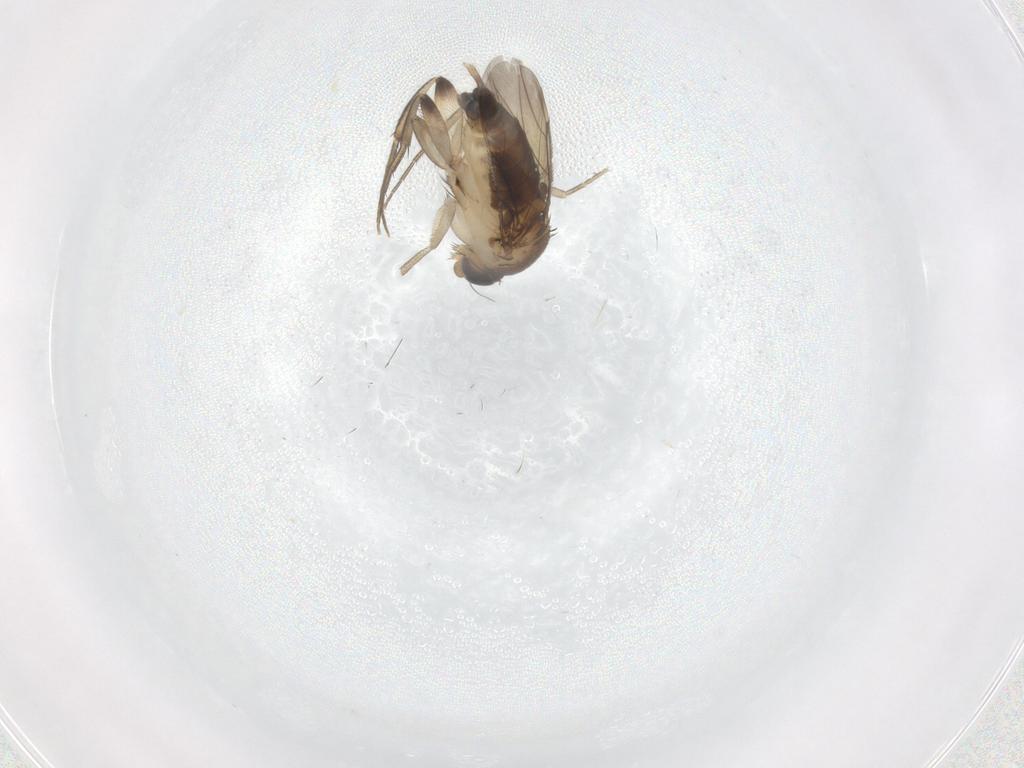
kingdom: Animalia
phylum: Arthropoda
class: Insecta
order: Diptera
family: Phoridae
